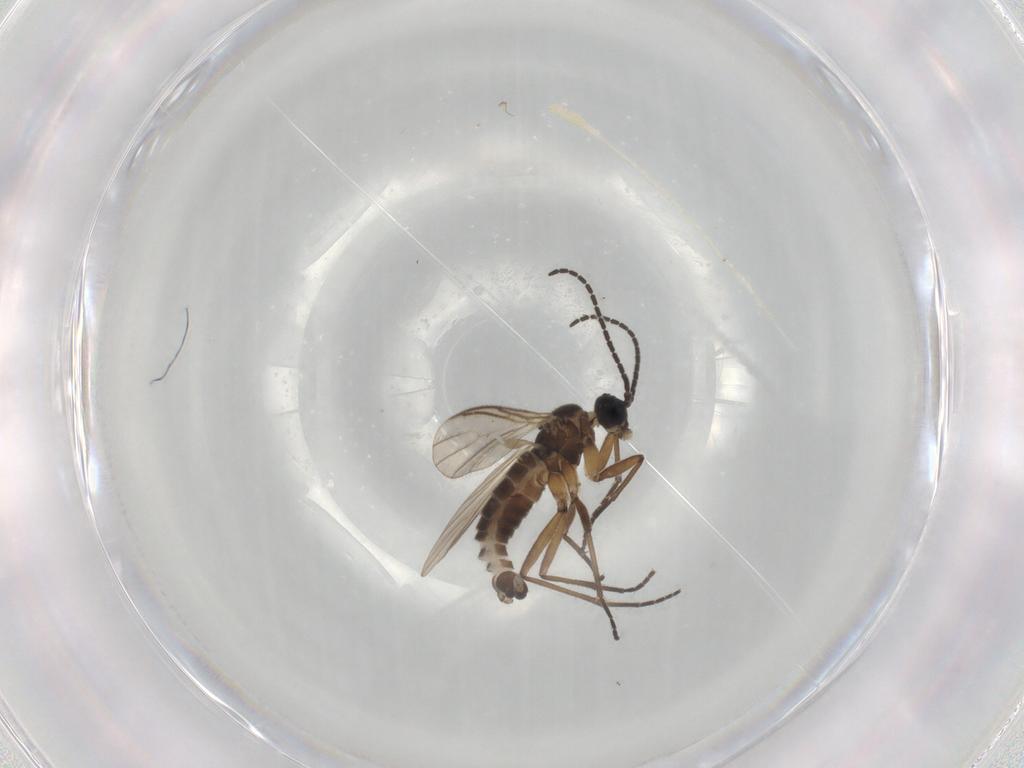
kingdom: Animalia
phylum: Arthropoda
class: Insecta
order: Diptera
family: Sciaridae
